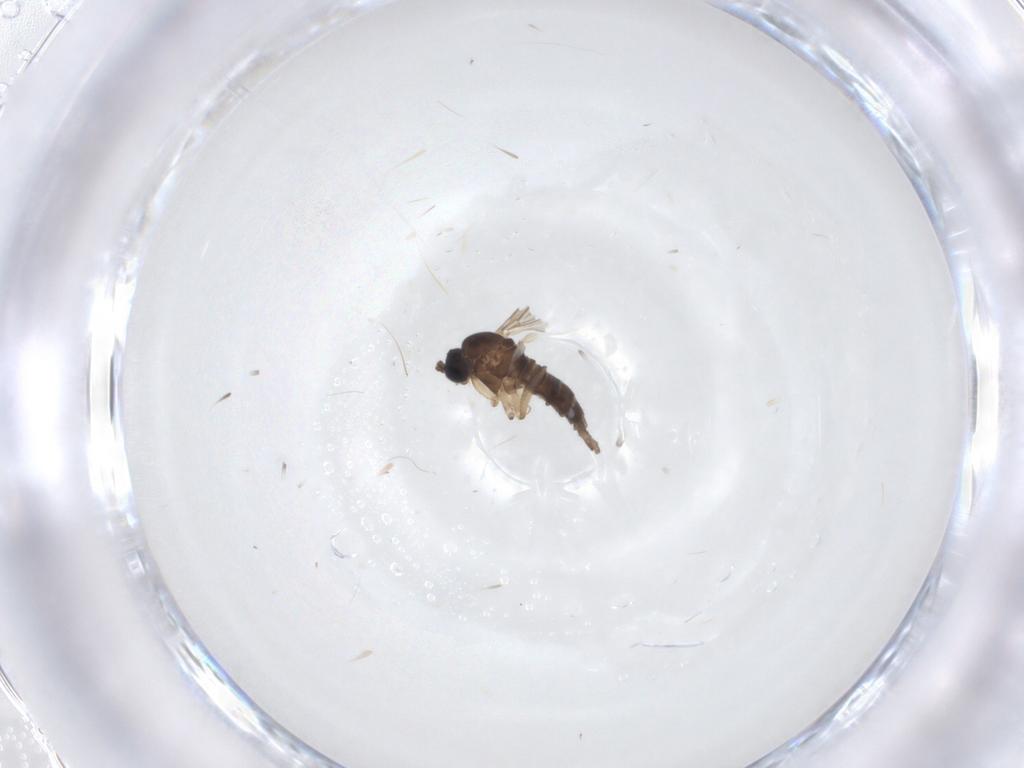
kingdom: Animalia
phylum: Arthropoda
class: Insecta
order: Diptera
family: Sciaridae
